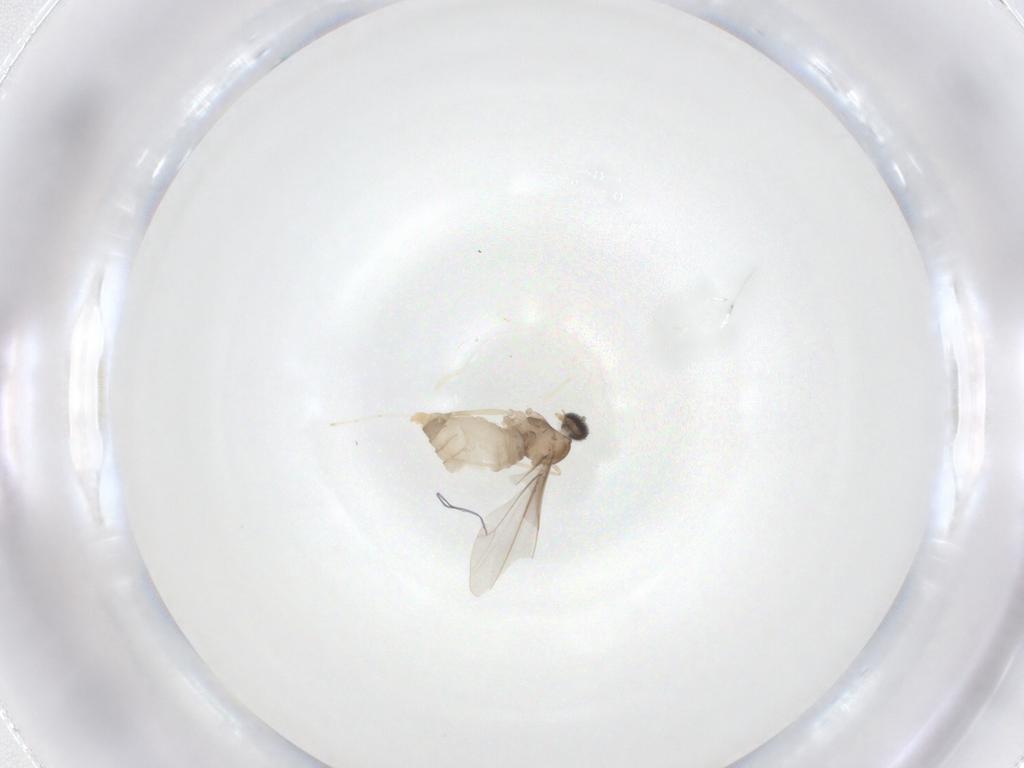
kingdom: Animalia
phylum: Arthropoda
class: Insecta
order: Diptera
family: Cecidomyiidae
